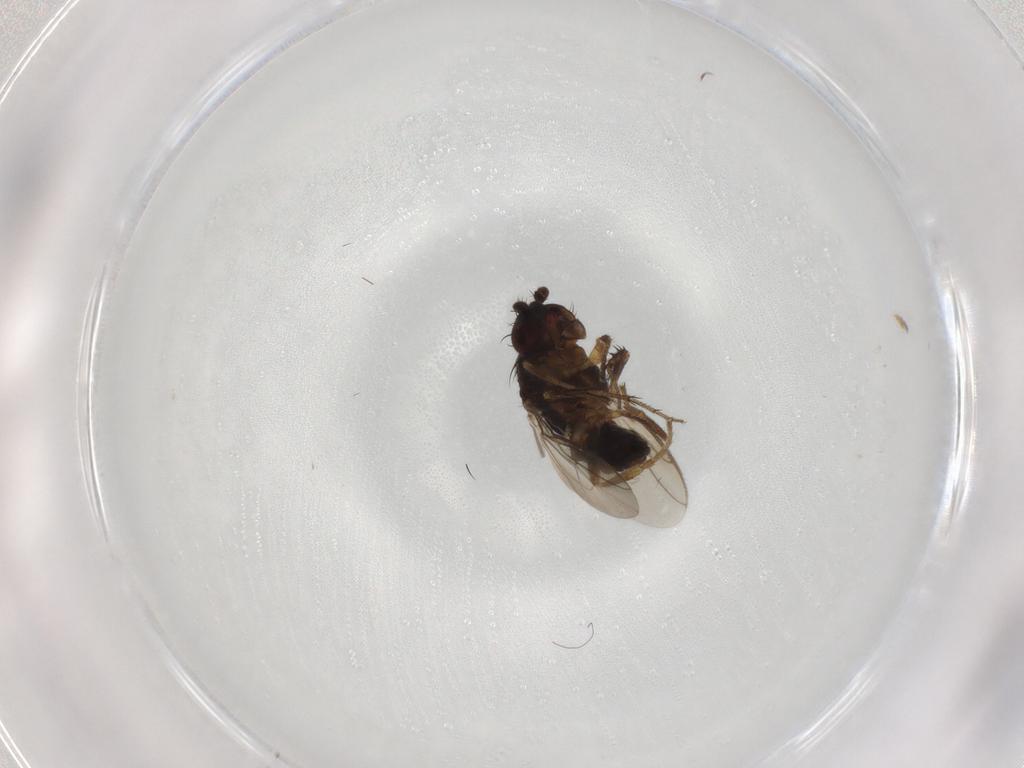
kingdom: Animalia
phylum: Arthropoda
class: Insecta
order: Diptera
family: Sphaeroceridae
